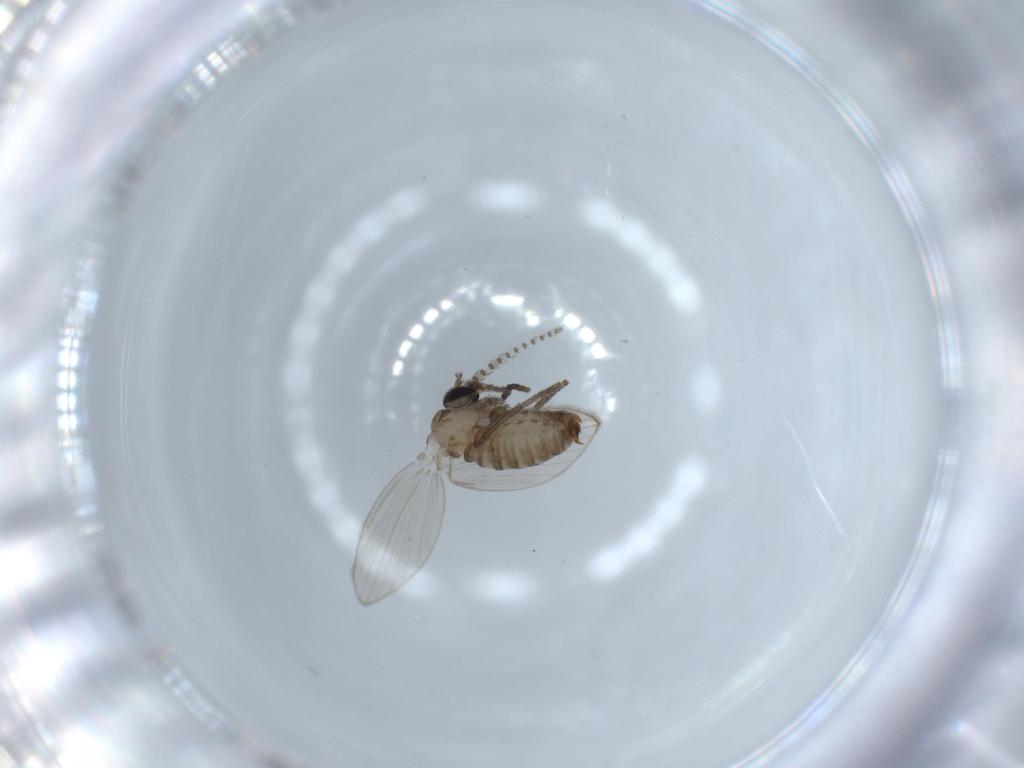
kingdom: Animalia
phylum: Arthropoda
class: Insecta
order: Diptera
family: Psychodidae
